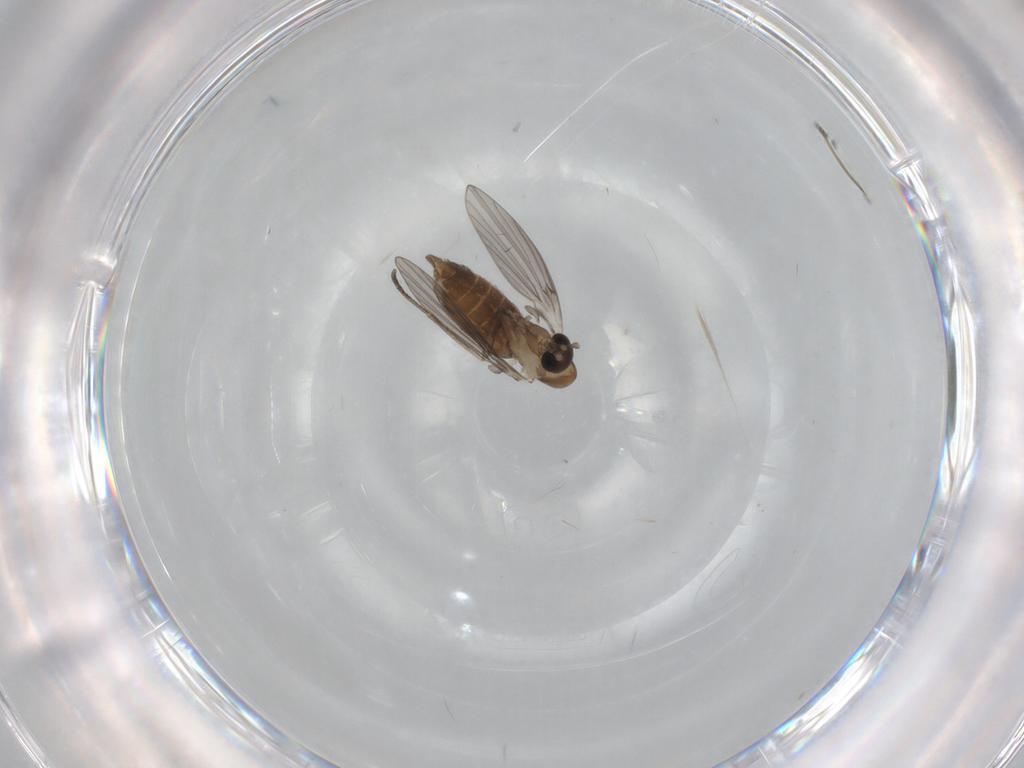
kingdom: Animalia
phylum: Arthropoda
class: Insecta
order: Diptera
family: Psychodidae
